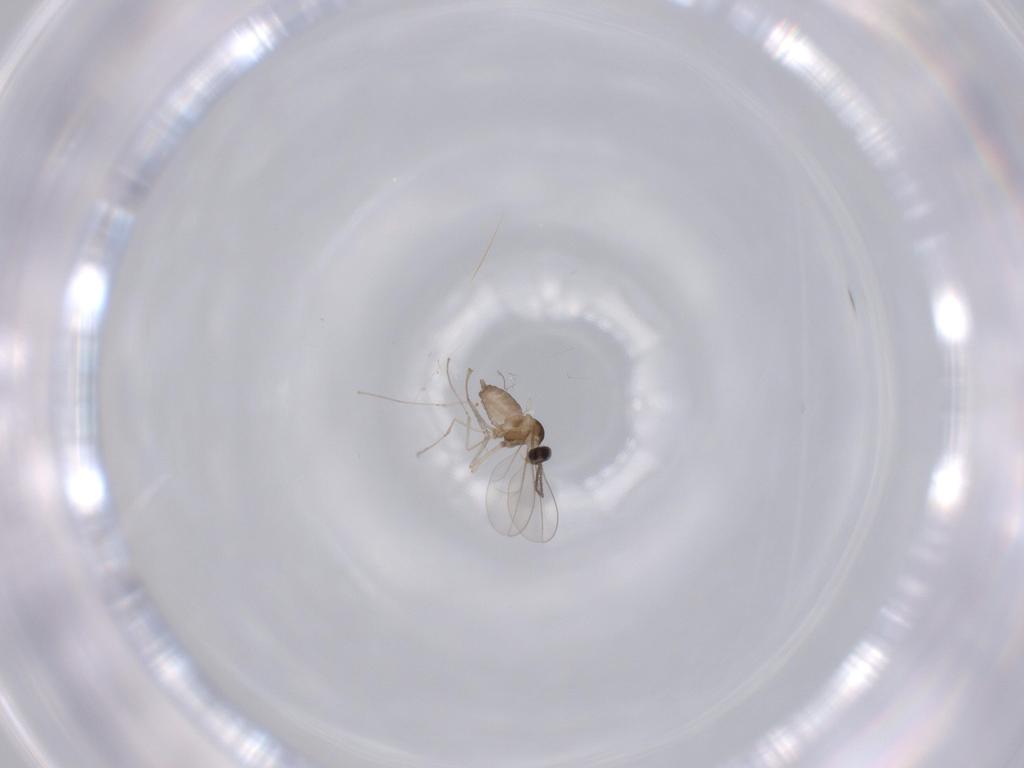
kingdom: Animalia
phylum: Arthropoda
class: Insecta
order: Diptera
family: Cecidomyiidae
